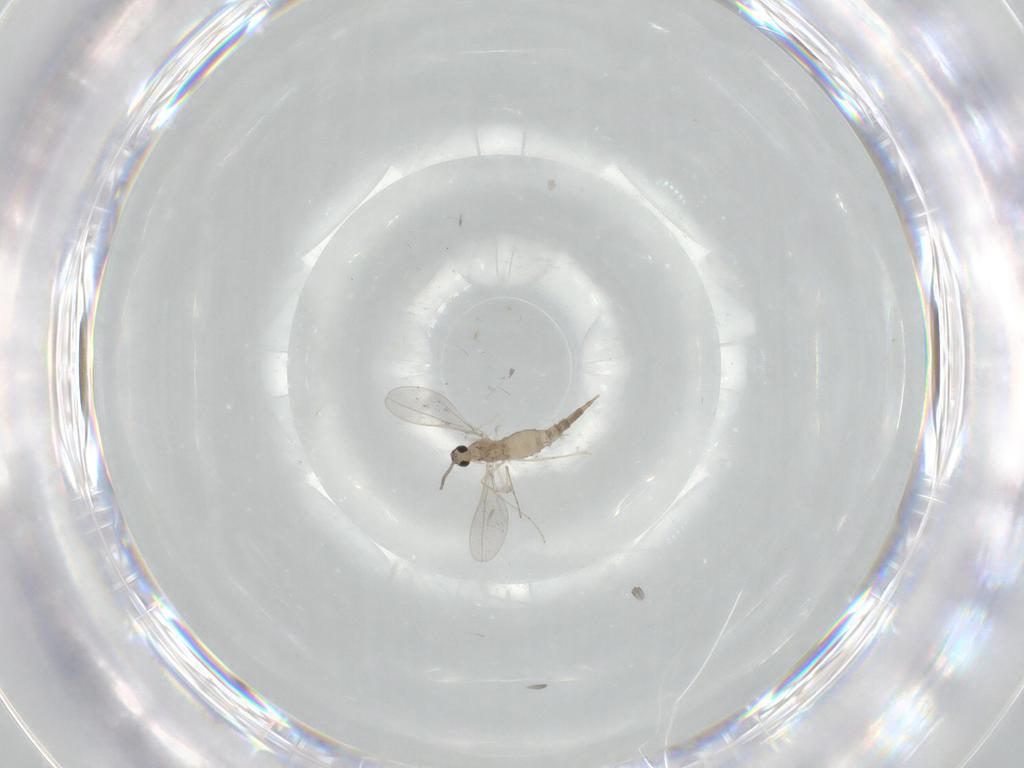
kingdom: Animalia
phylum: Arthropoda
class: Insecta
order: Diptera
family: Cecidomyiidae
